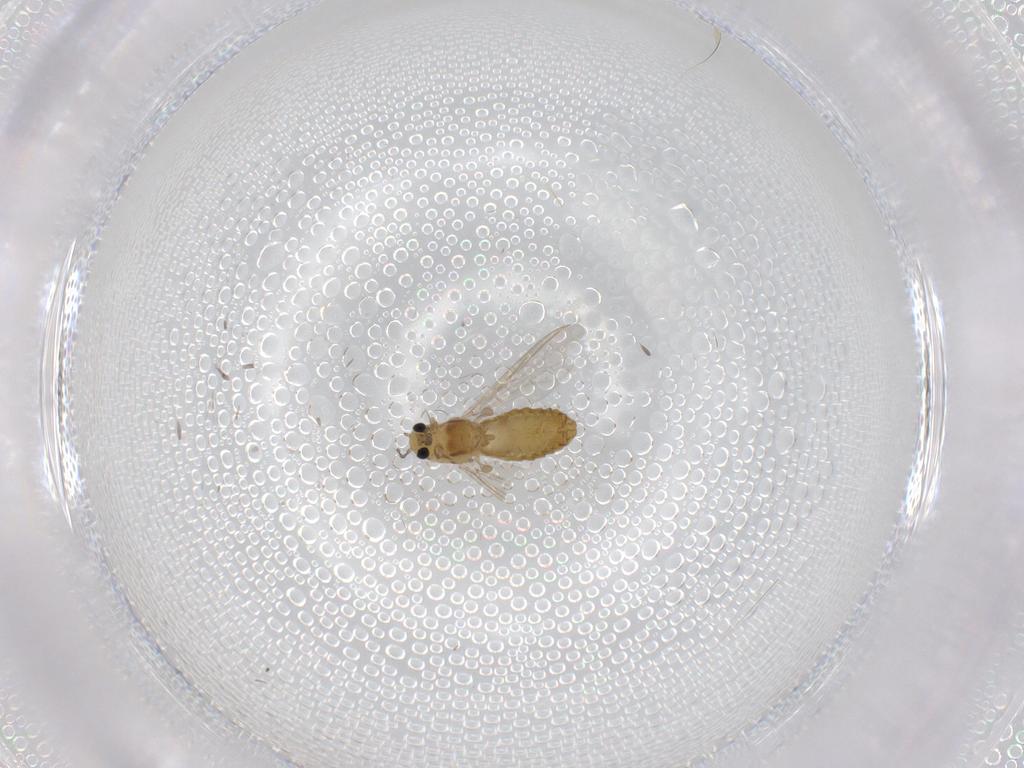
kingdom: Animalia
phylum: Arthropoda
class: Insecta
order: Diptera
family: Chironomidae
